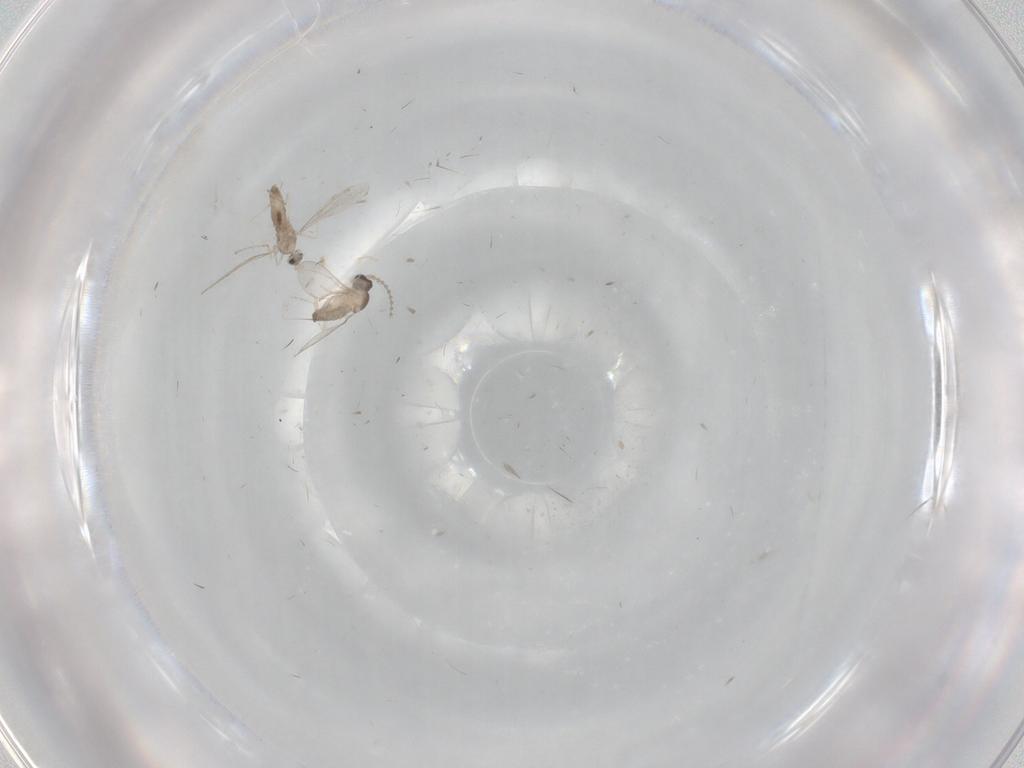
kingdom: Animalia
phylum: Arthropoda
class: Insecta
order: Diptera
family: Cecidomyiidae
